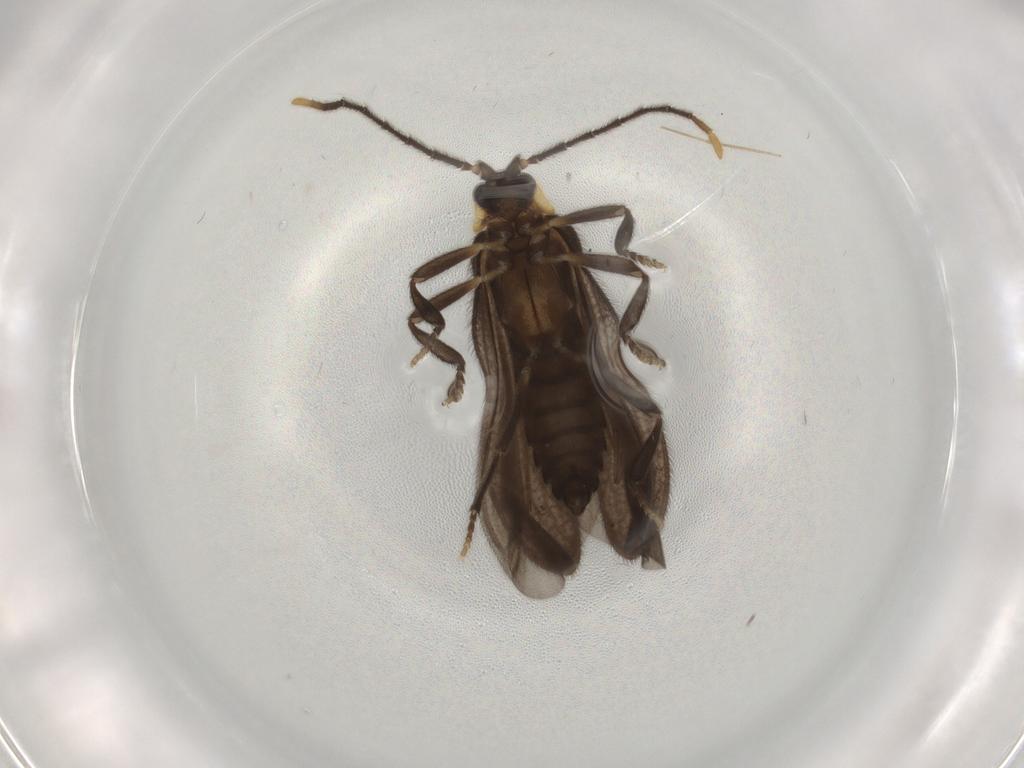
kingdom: Animalia
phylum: Arthropoda
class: Insecta
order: Coleoptera
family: Lycidae
